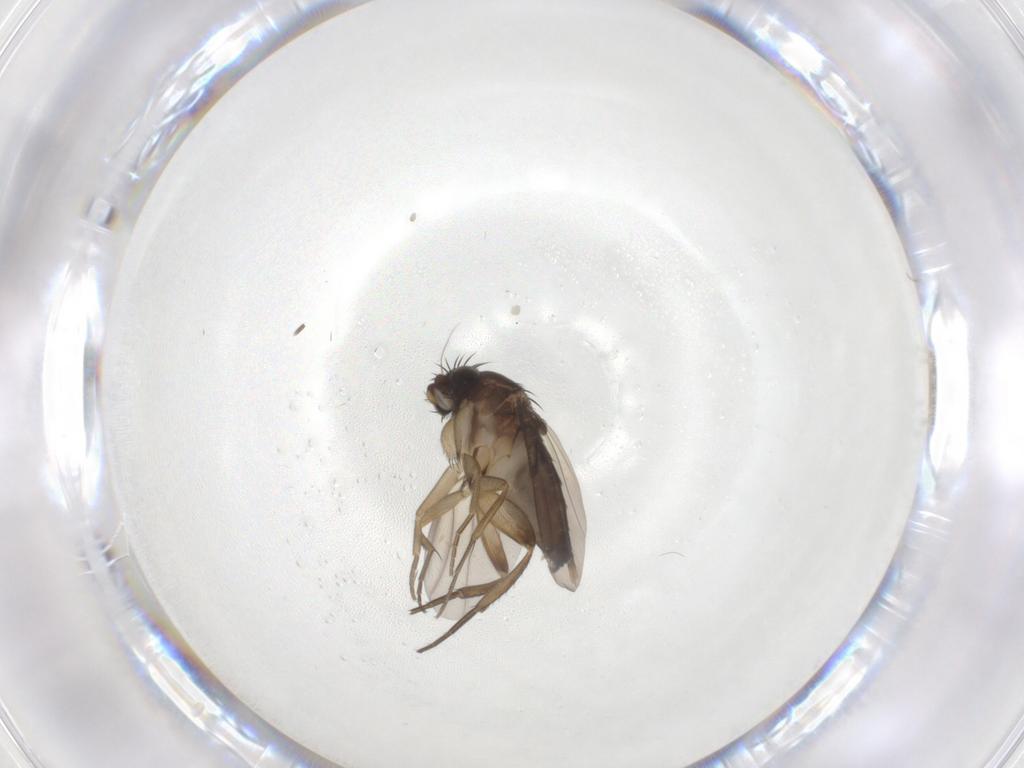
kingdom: Animalia
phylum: Arthropoda
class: Insecta
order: Diptera
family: Phoridae
